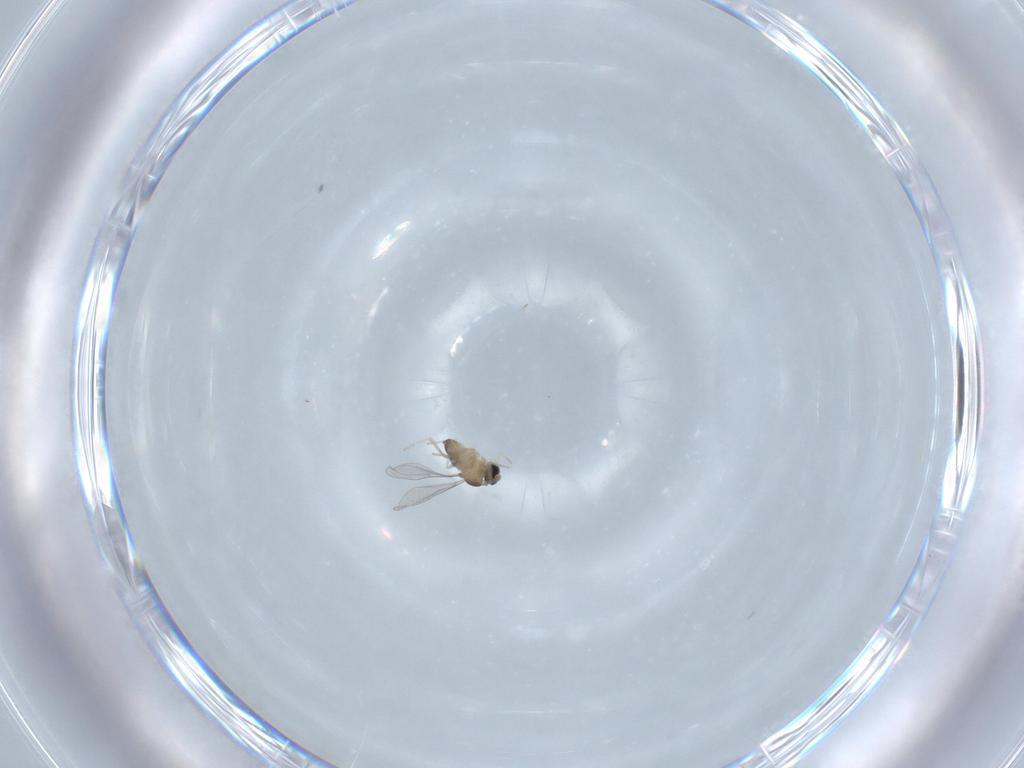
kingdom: Animalia
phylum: Arthropoda
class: Insecta
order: Diptera
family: Cecidomyiidae
